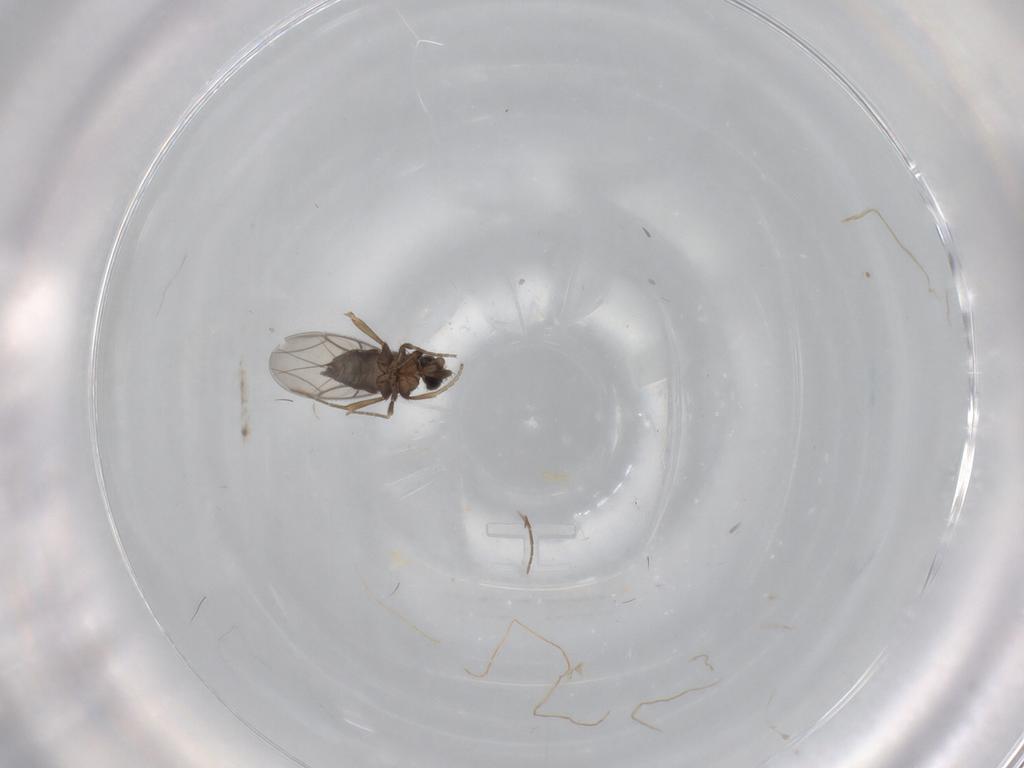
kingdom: Animalia
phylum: Arthropoda
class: Insecta
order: Diptera
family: Phoridae
